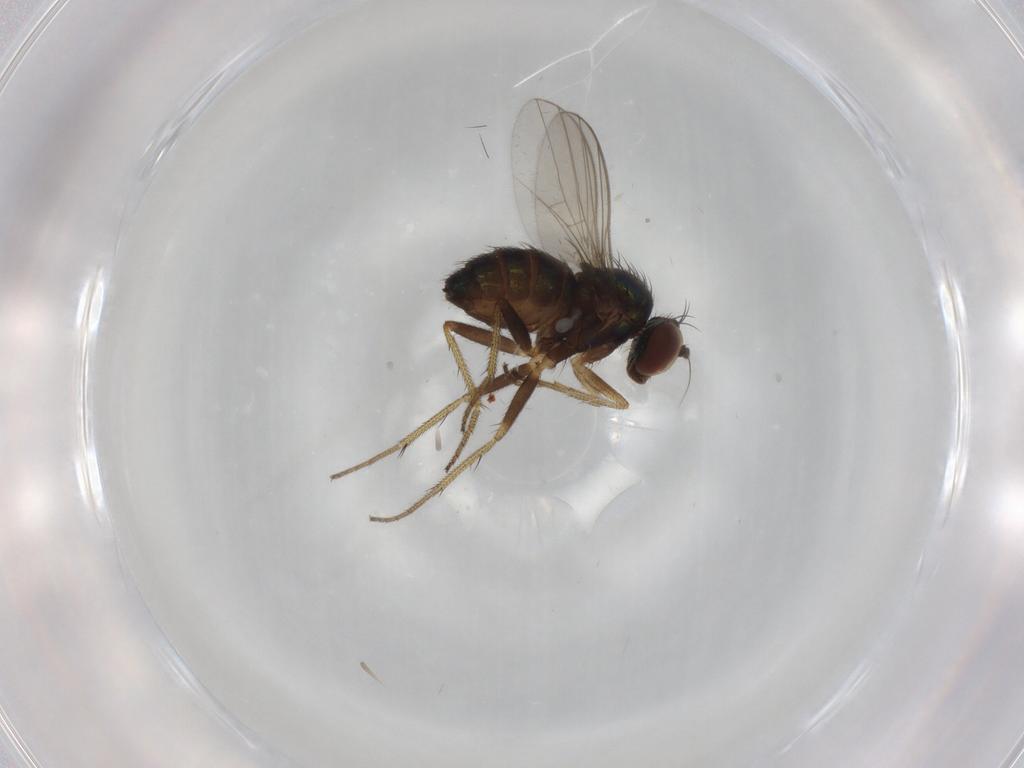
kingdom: Animalia
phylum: Arthropoda
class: Insecta
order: Diptera
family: Dolichopodidae
